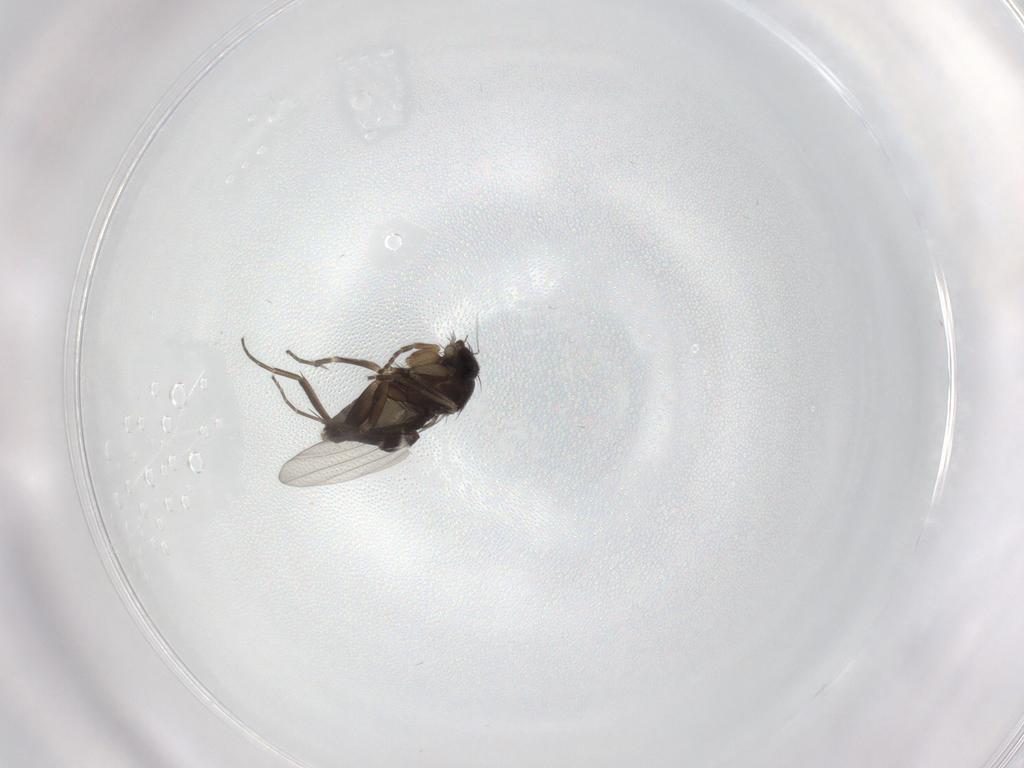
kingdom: Animalia
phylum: Arthropoda
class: Insecta
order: Diptera
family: Phoridae
